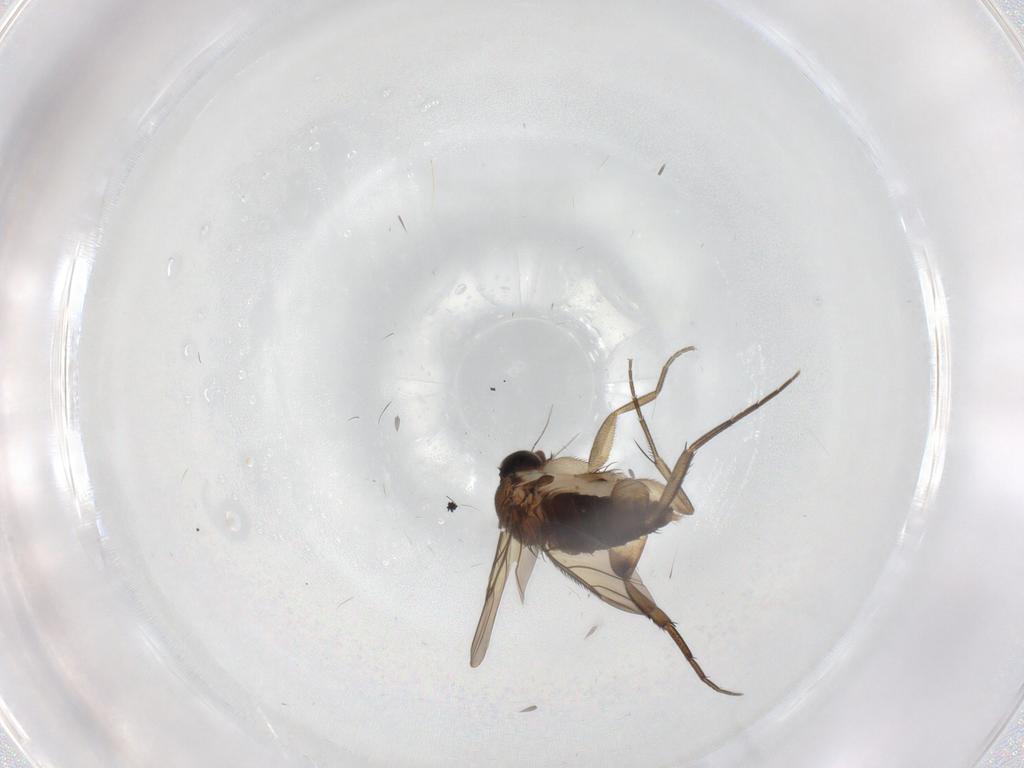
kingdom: Animalia
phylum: Arthropoda
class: Insecta
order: Diptera
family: Phoridae
